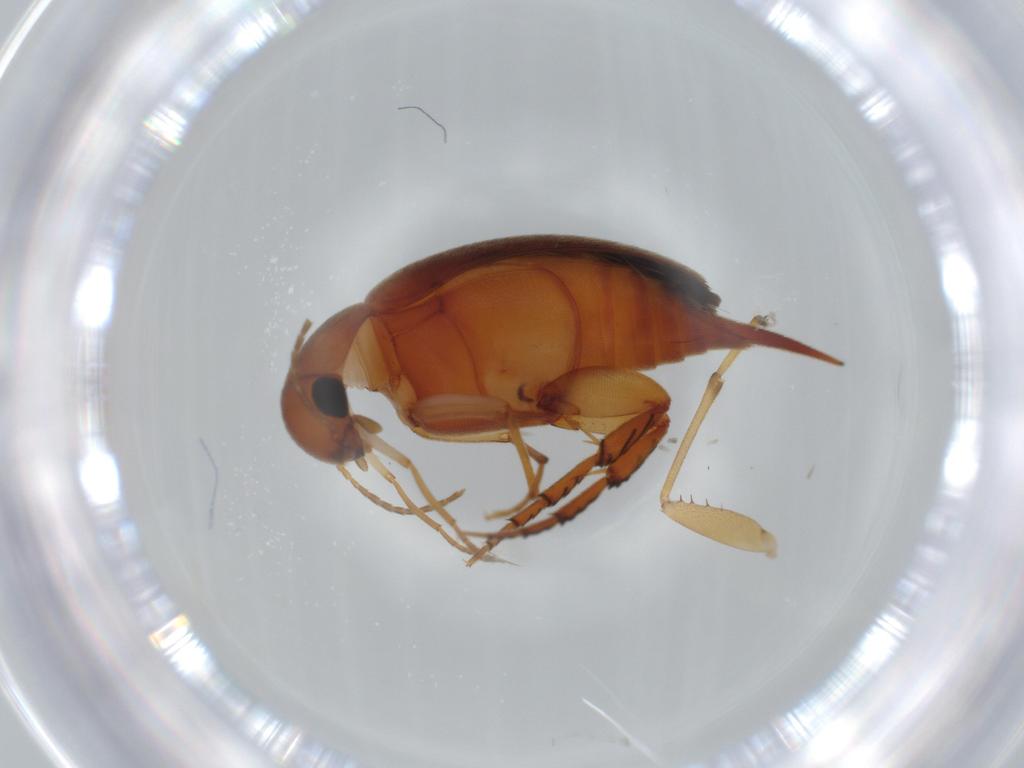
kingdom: Animalia
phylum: Arthropoda
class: Insecta
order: Coleoptera
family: Mordellidae
